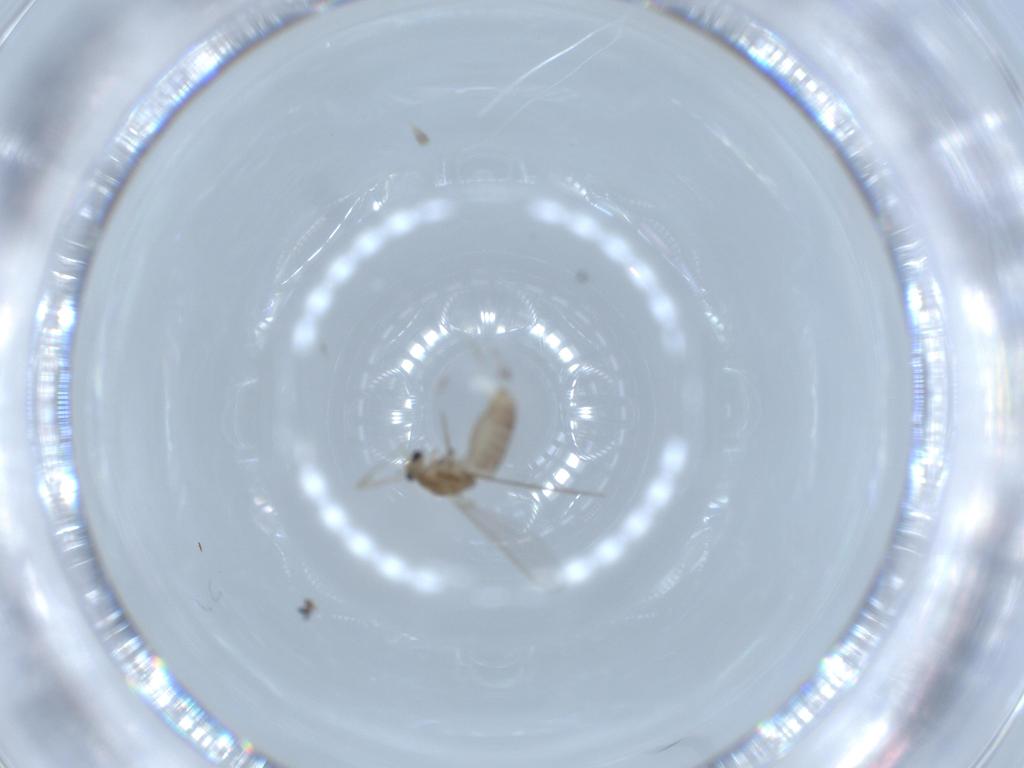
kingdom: Animalia
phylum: Arthropoda
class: Insecta
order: Diptera
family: Chironomidae
